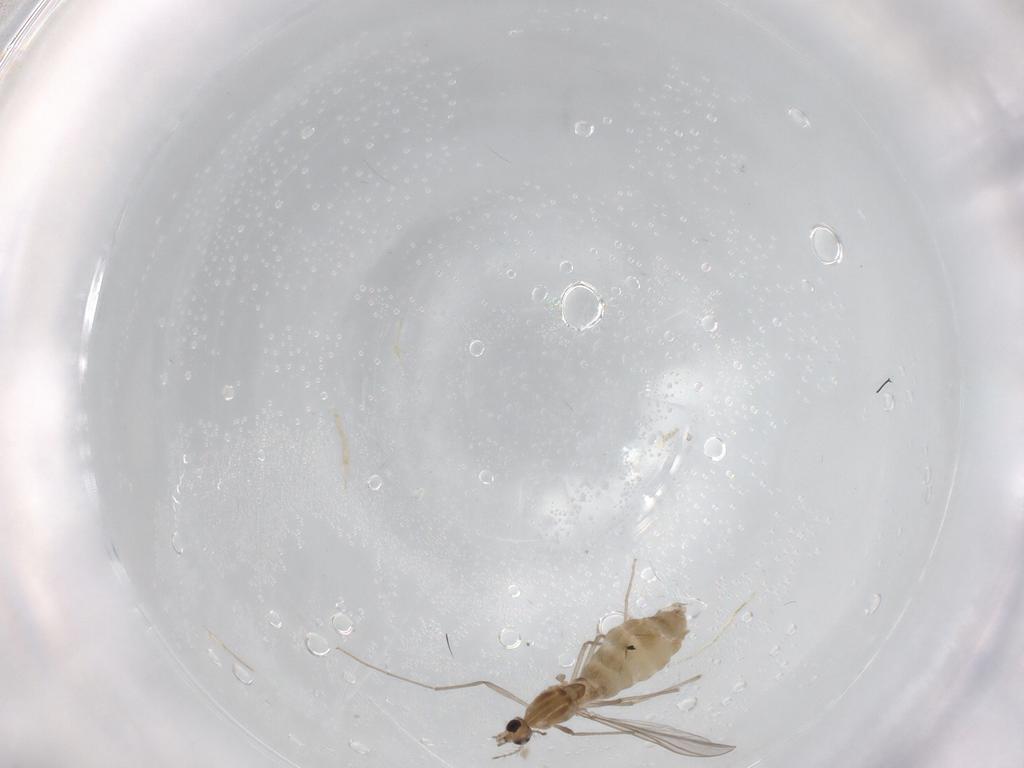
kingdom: Animalia
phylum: Arthropoda
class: Insecta
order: Diptera
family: Chironomidae
